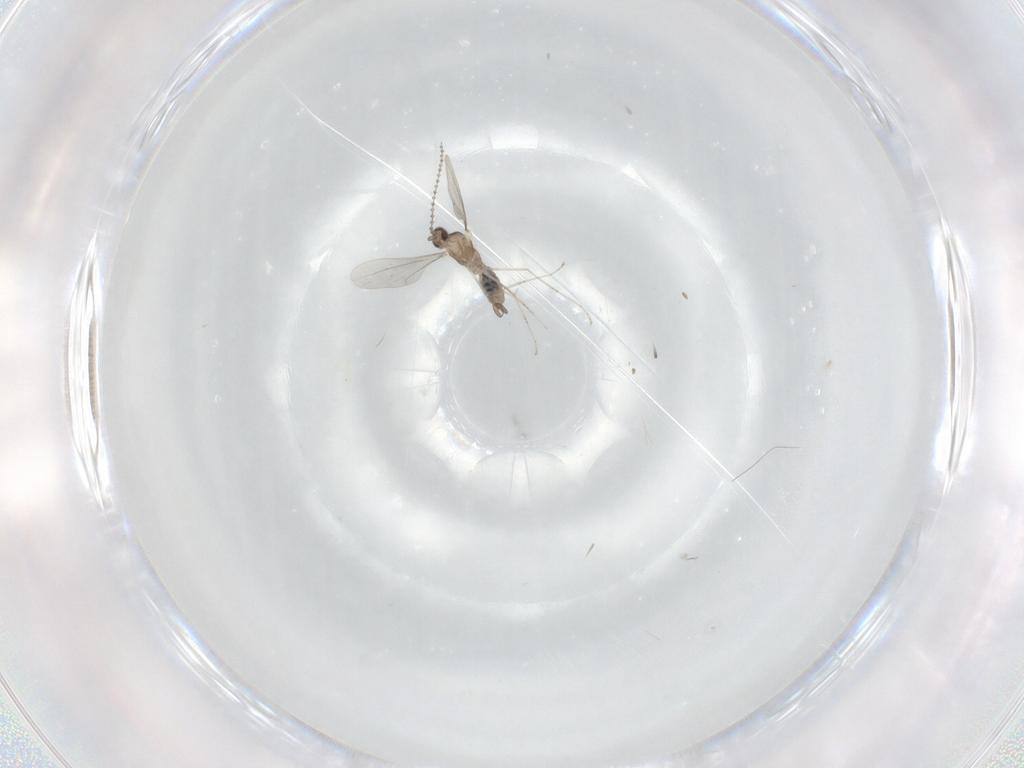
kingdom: Animalia
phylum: Arthropoda
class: Insecta
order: Diptera
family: Cecidomyiidae
